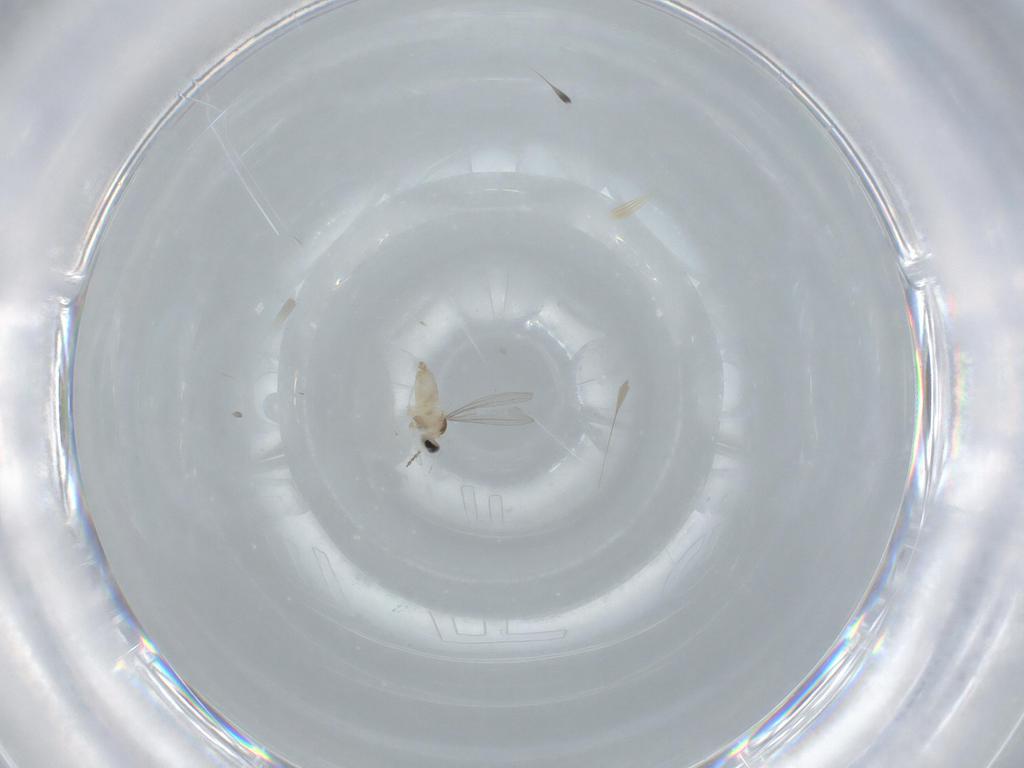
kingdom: Animalia
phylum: Arthropoda
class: Insecta
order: Diptera
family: Cecidomyiidae
